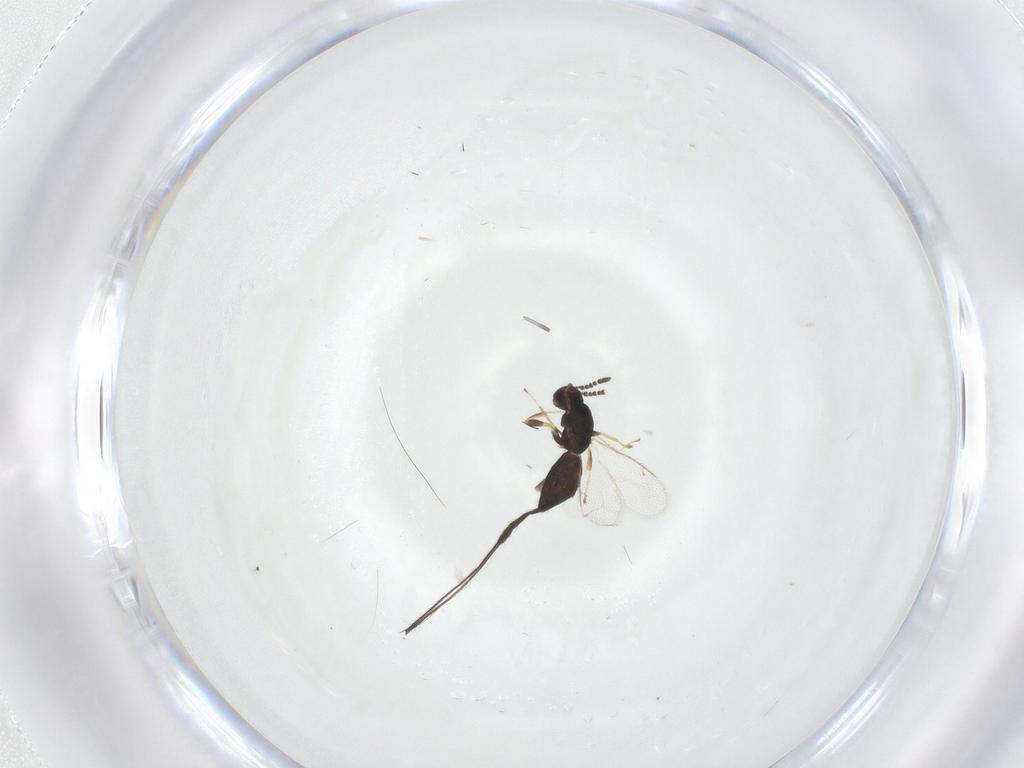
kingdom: Animalia
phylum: Arthropoda
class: Insecta
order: Hymenoptera
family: Pteromalidae
